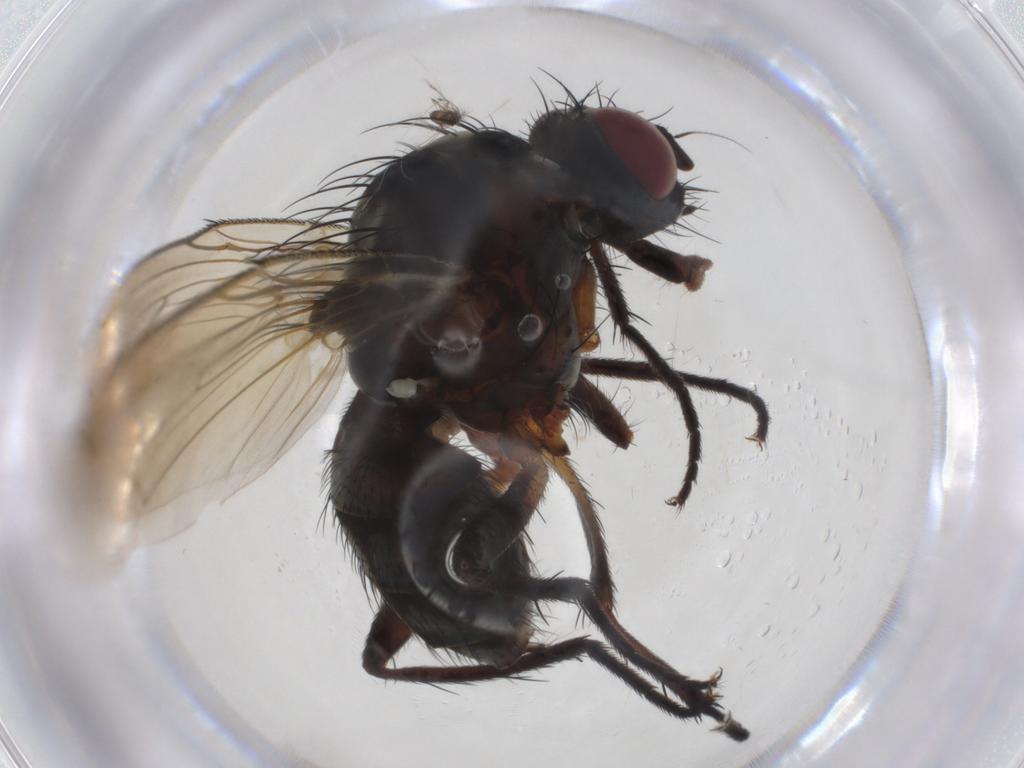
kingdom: Animalia
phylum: Arthropoda
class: Insecta
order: Diptera
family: Anthomyiidae
